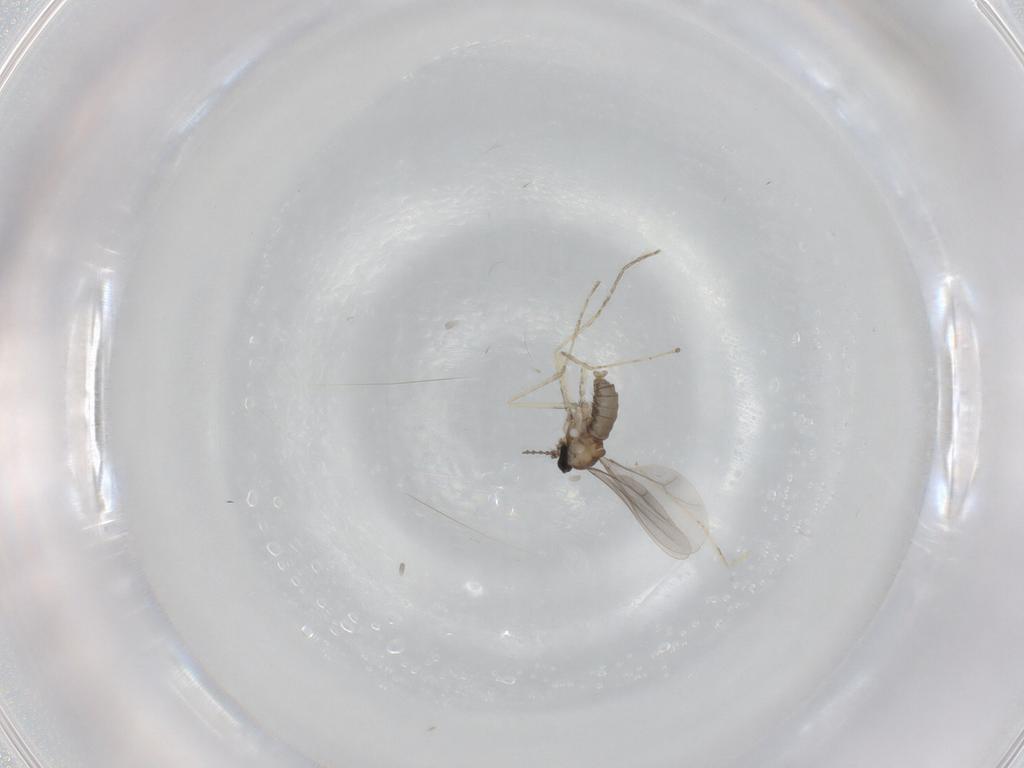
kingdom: Animalia
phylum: Arthropoda
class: Insecta
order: Diptera
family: Cecidomyiidae
